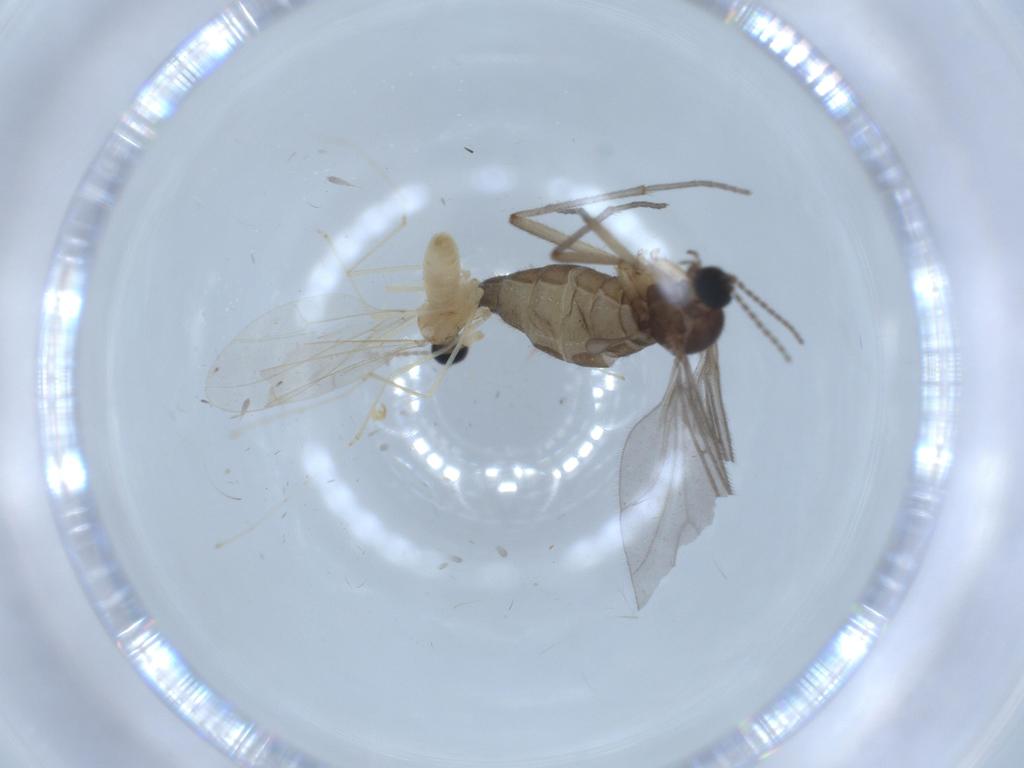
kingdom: Animalia
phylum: Arthropoda
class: Insecta
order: Diptera
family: Cecidomyiidae
